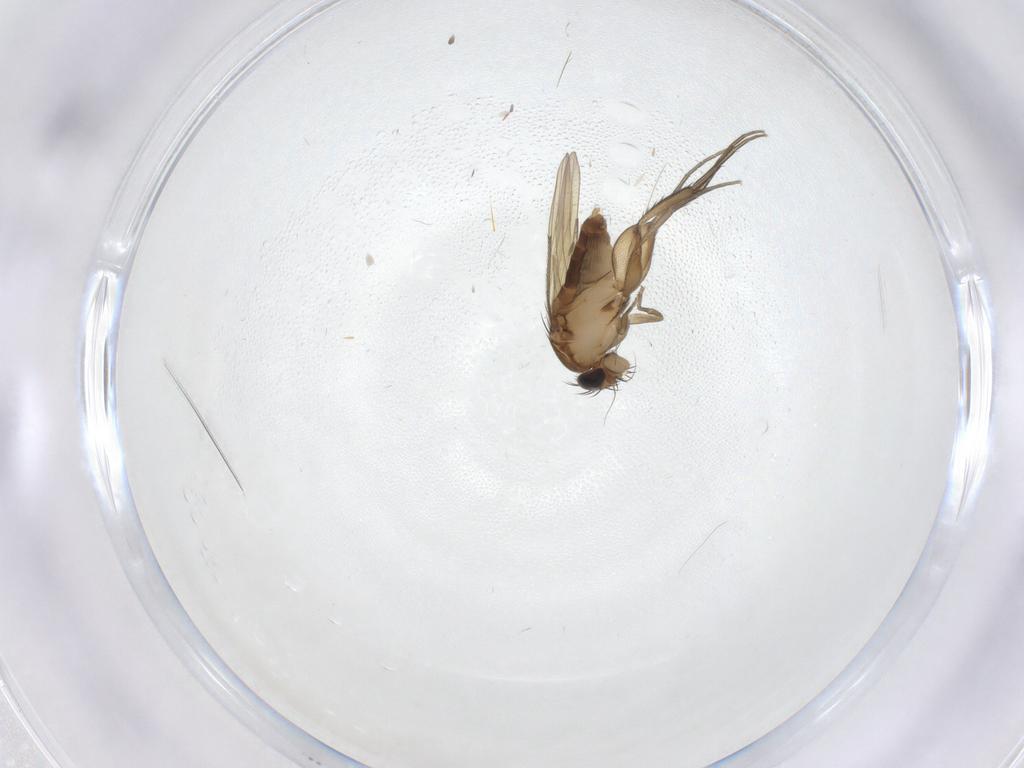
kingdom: Animalia
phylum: Arthropoda
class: Insecta
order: Diptera
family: Phoridae
